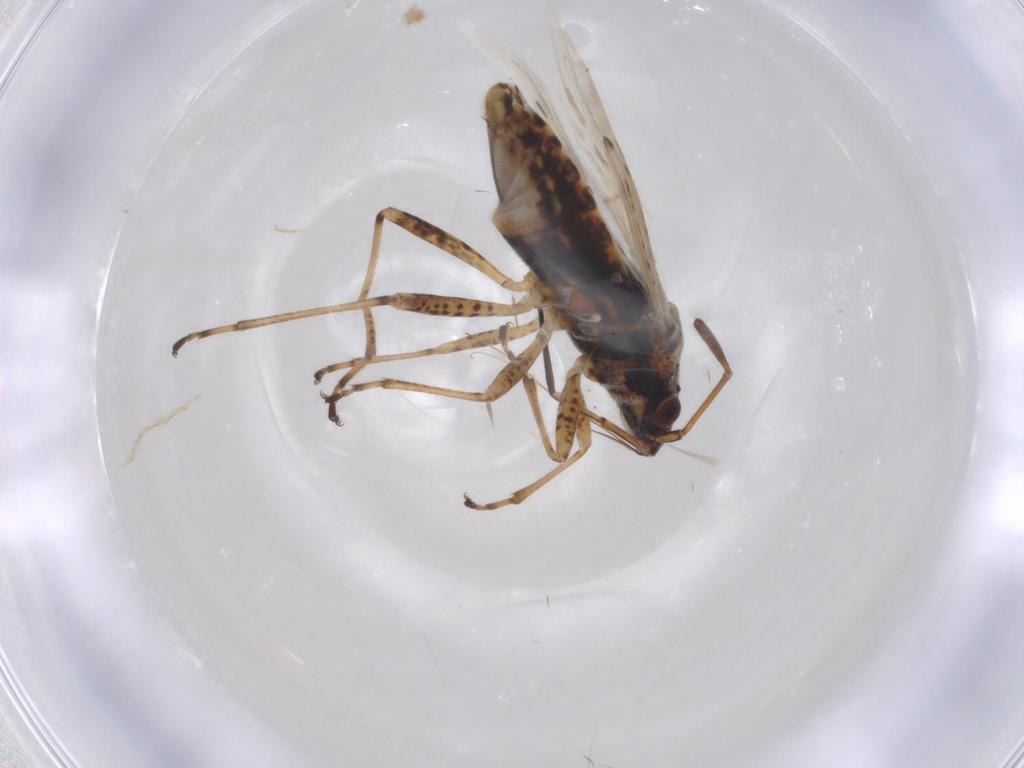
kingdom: Animalia
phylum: Arthropoda
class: Insecta
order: Hemiptera
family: Lygaeidae
